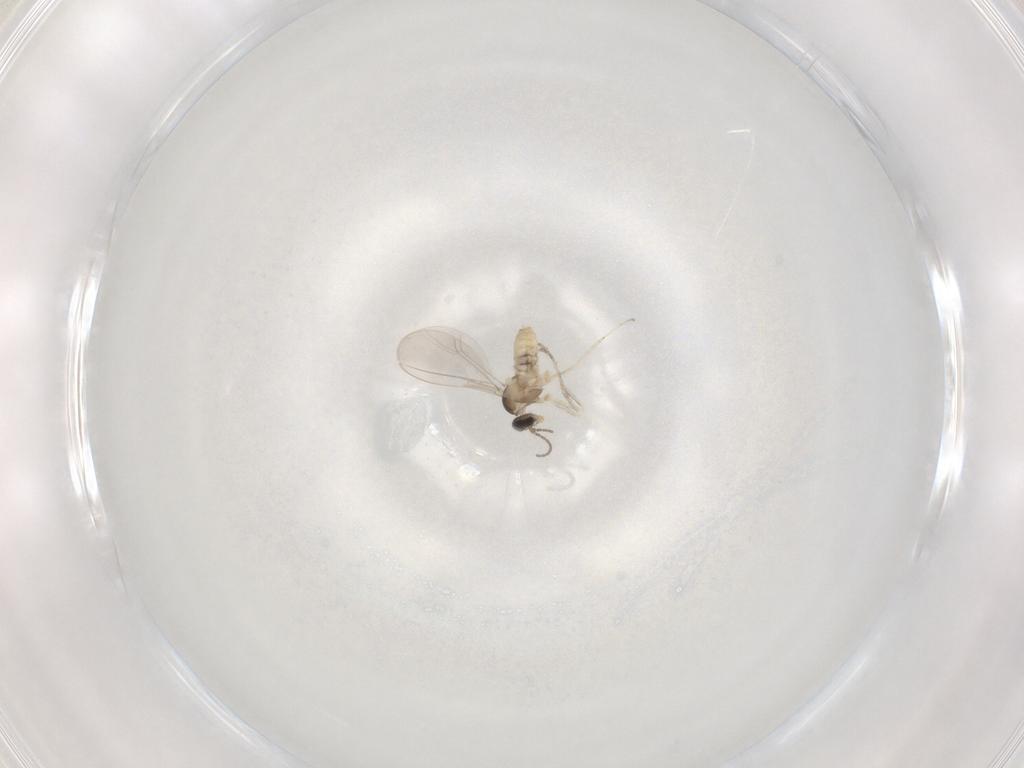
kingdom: Animalia
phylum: Arthropoda
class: Insecta
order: Diptera
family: Cecidomyiidae
